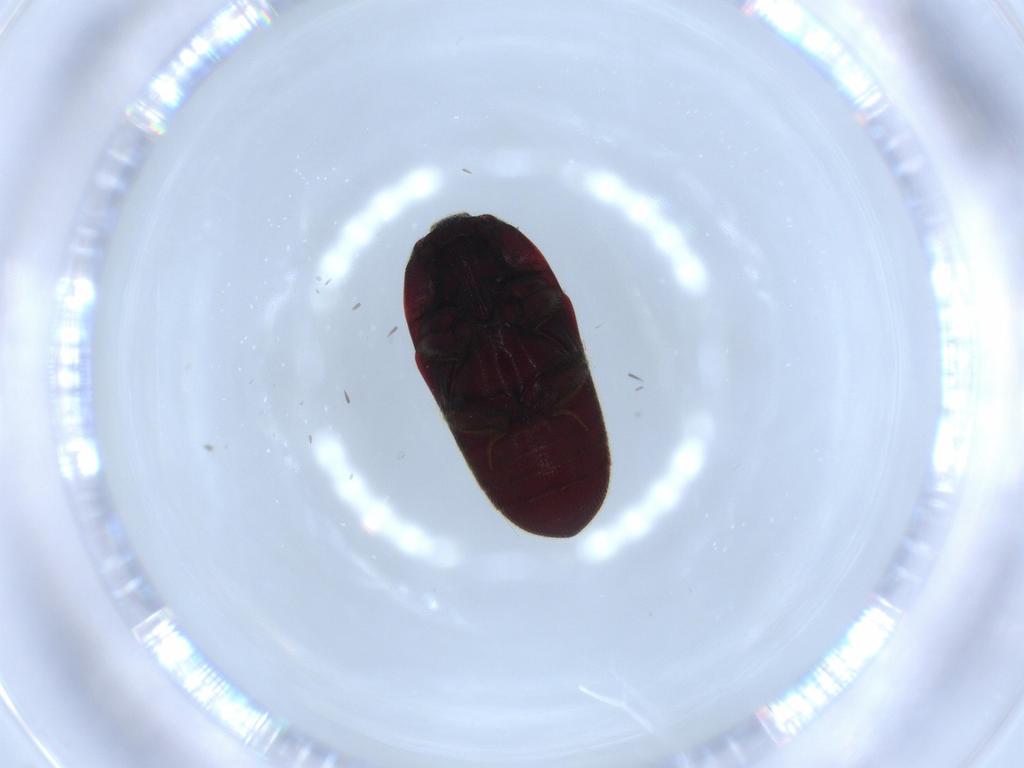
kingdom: Animalia
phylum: Arthropoda
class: Insecta
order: Coleoptera
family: Throscidae
